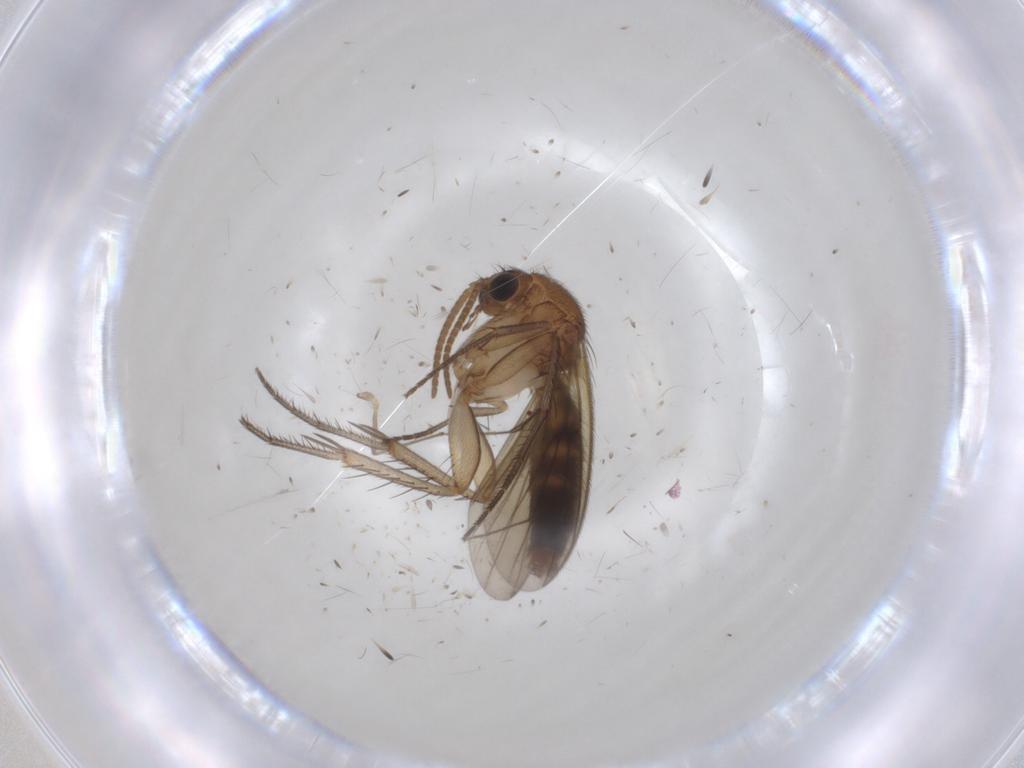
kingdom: Animalia
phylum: Arthropoda
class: Insecta
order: Diptera
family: Mycetophilidae
